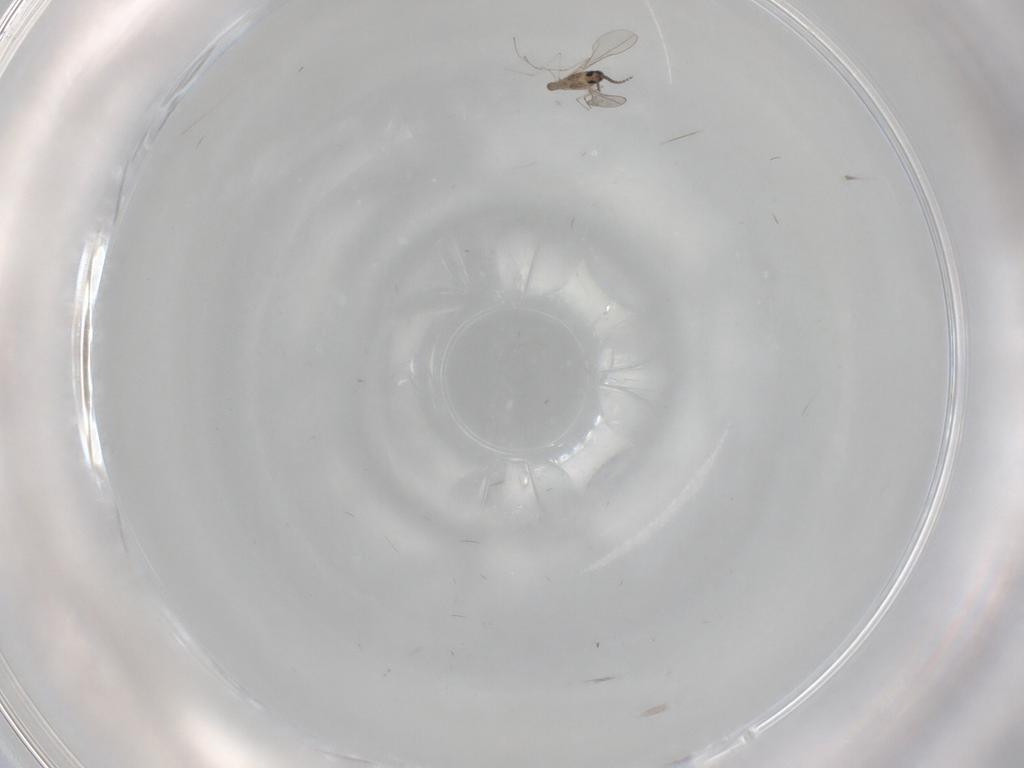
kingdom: Animalia
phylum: Arthropoda
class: Insecta
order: Diptera
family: Cecidomyiidae
